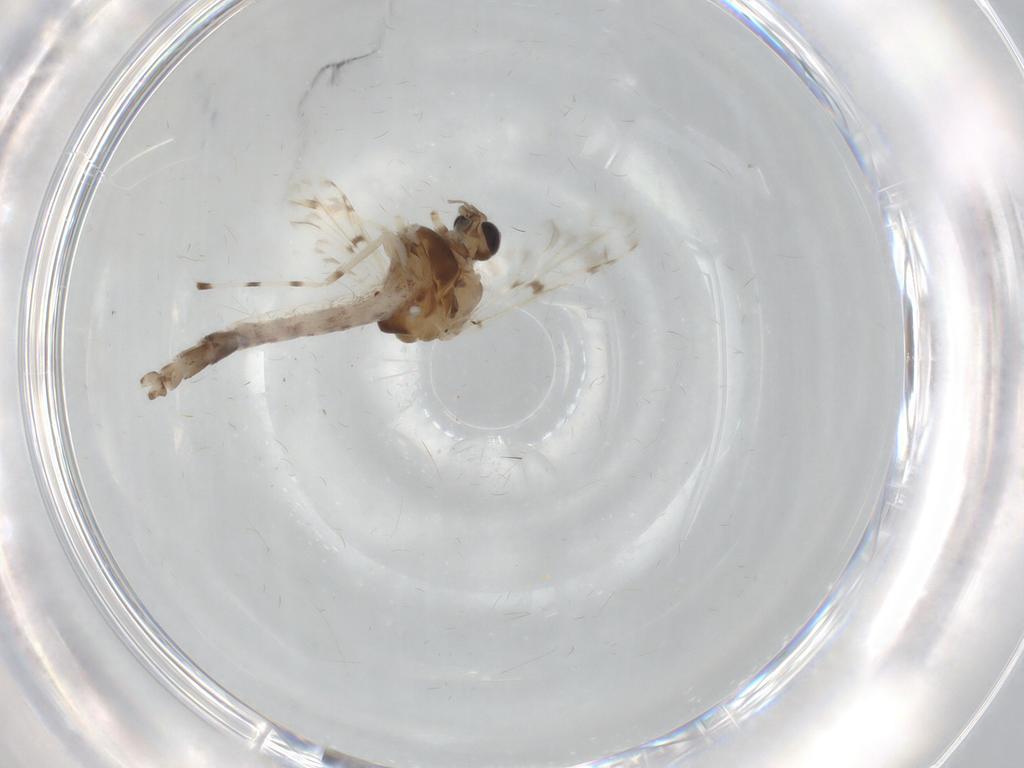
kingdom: Animalia
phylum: Arthropoda
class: Insecta
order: Diptera
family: Chironomidae
